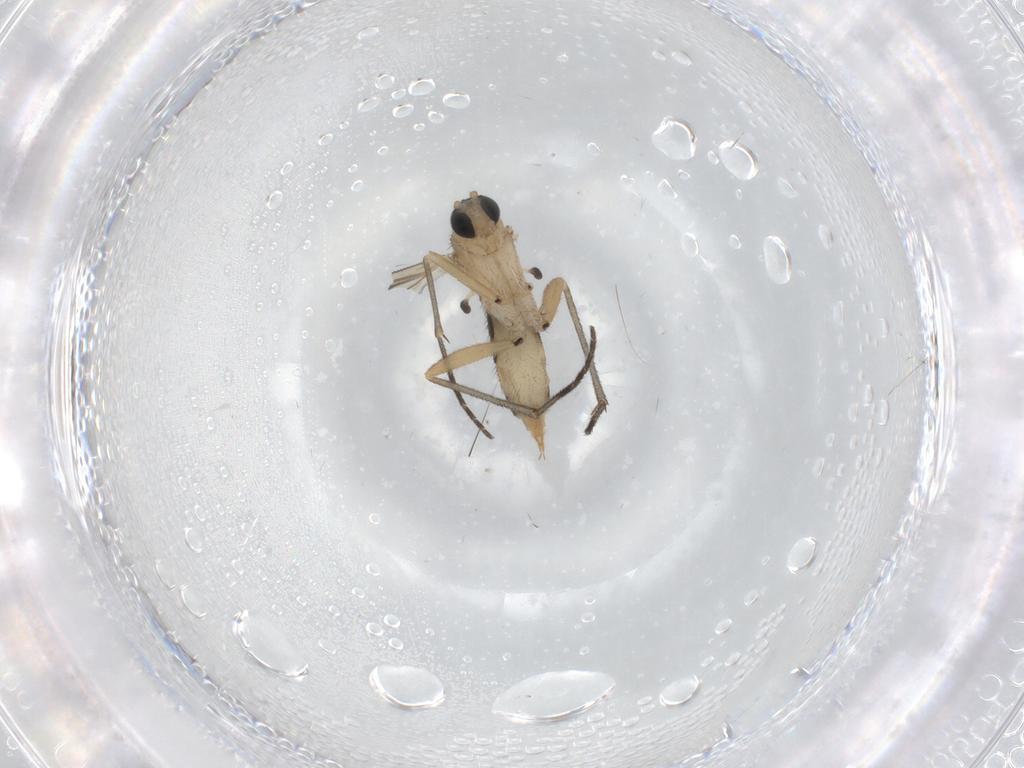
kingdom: Animalia
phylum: Arthropoda
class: Insecta
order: Diptera
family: Sciaridae
